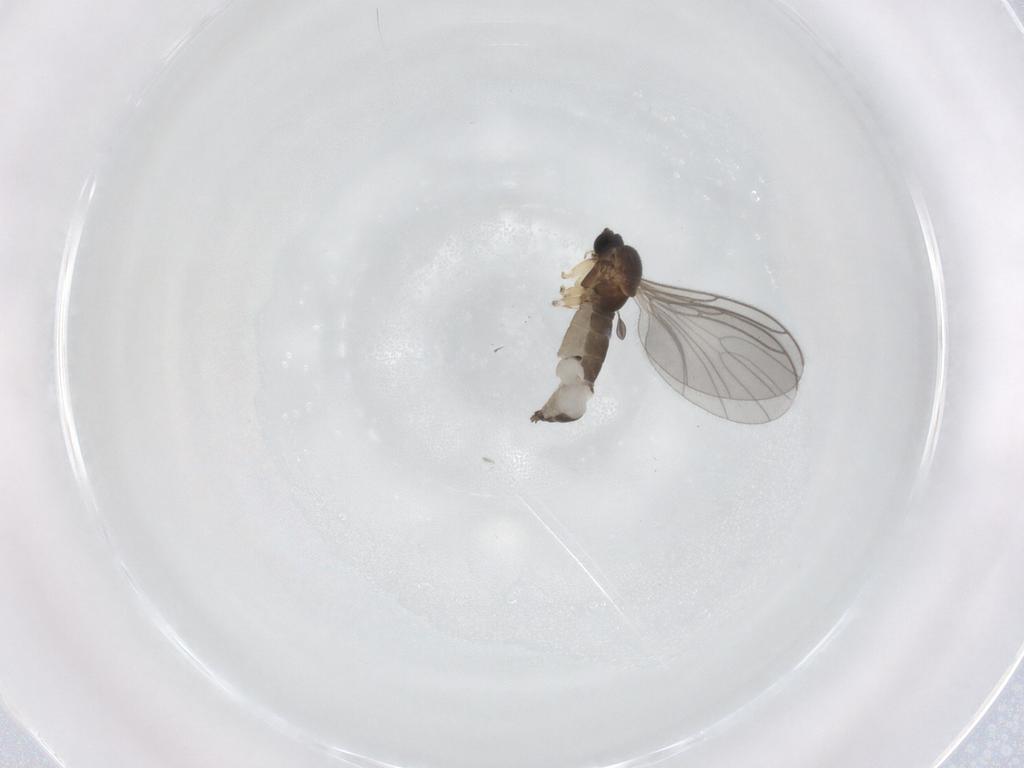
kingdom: Animalia
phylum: Arthropoda
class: Insecta
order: Diptera
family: Sciaridae
